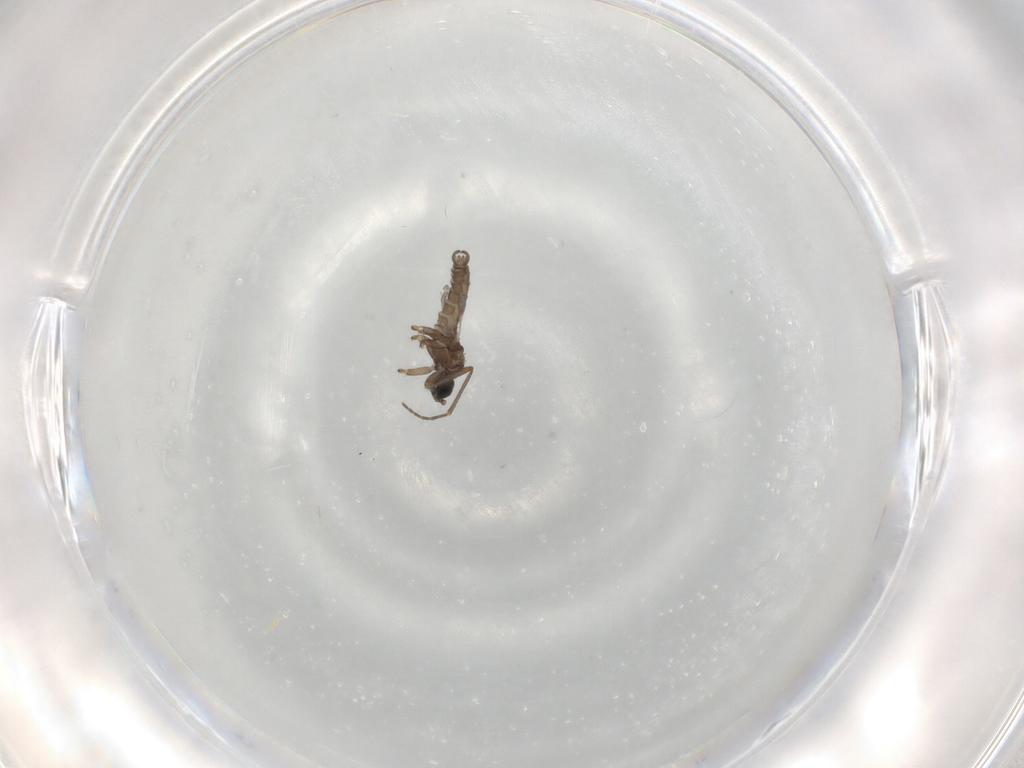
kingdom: Animalia
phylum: Arthropoda
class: Insecta
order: Diptera
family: Chironomidae
